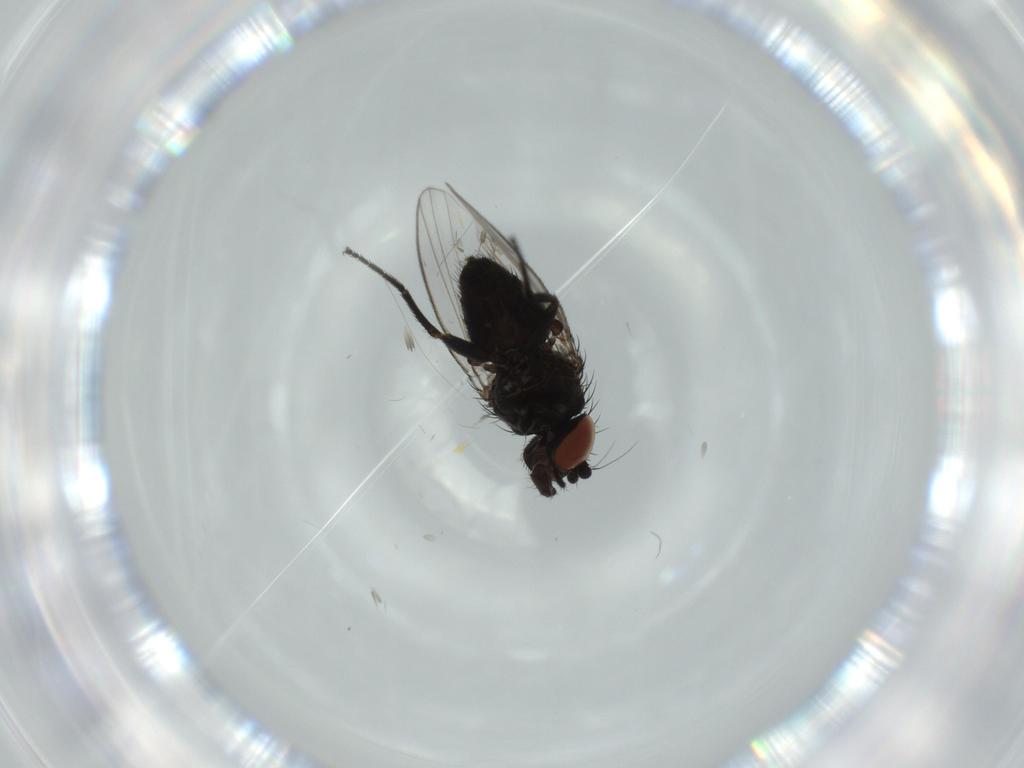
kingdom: Animalia
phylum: Arthropoda
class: Insecta
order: Diptera
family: Milichiidae
